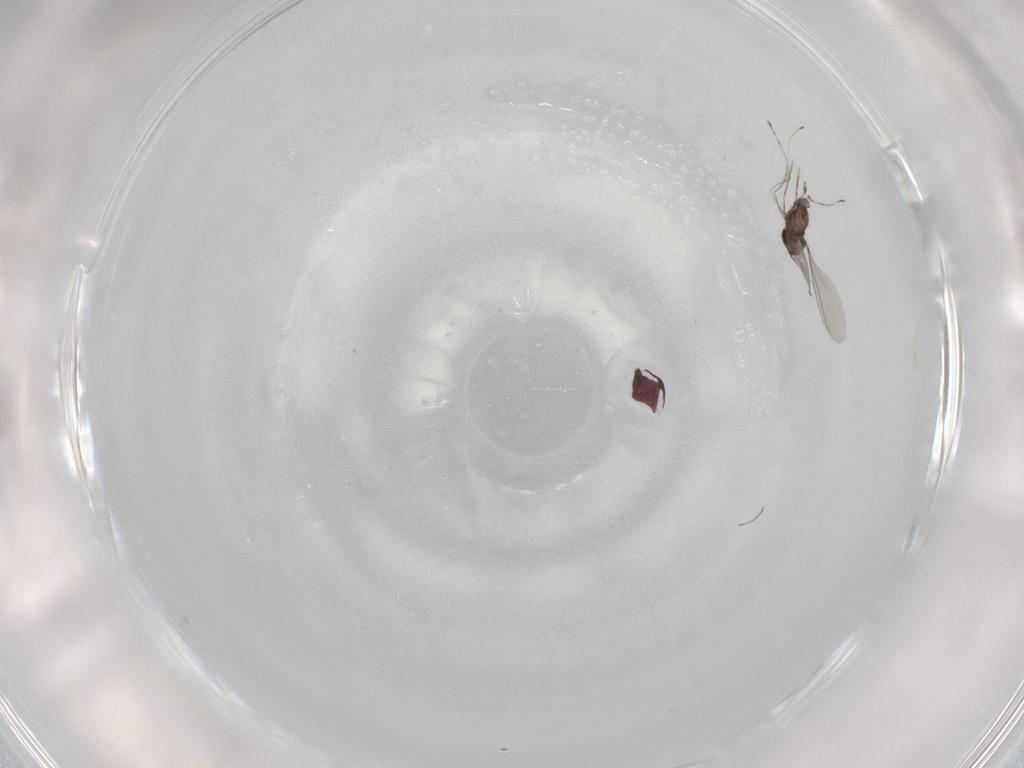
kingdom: Animalia
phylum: Arthropoda
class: Insecta
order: Diptera
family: Cecidomyiidae
